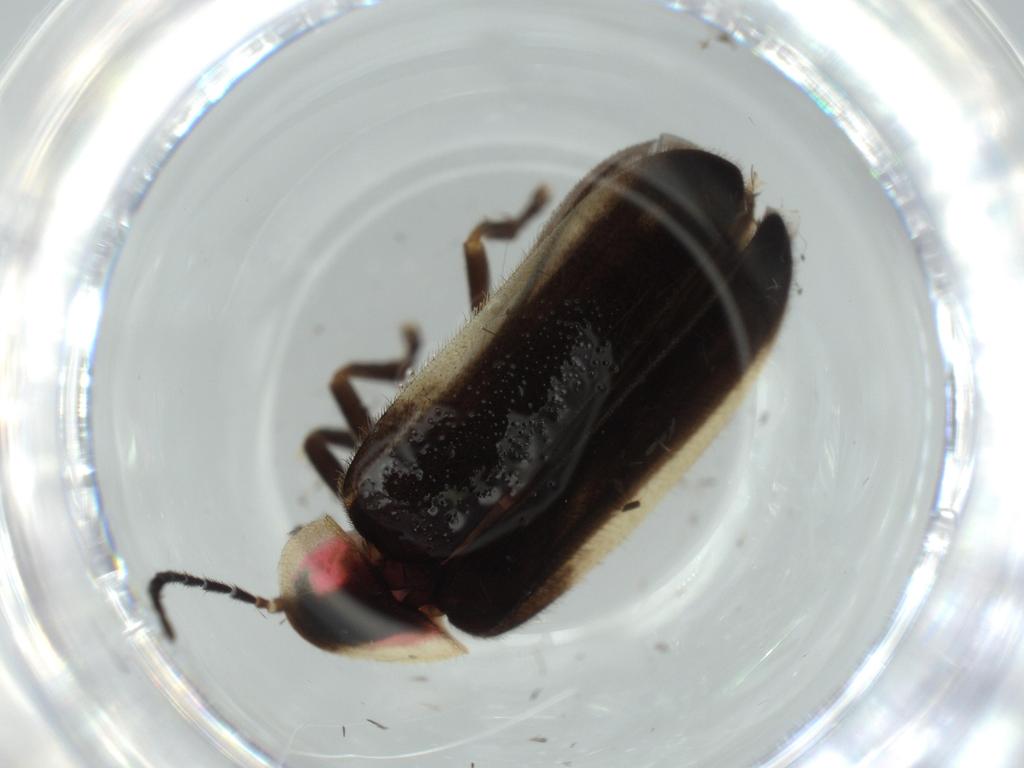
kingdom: Animalia
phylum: Arthropoda
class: Insecta
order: Coleoptera
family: Lampyridae
